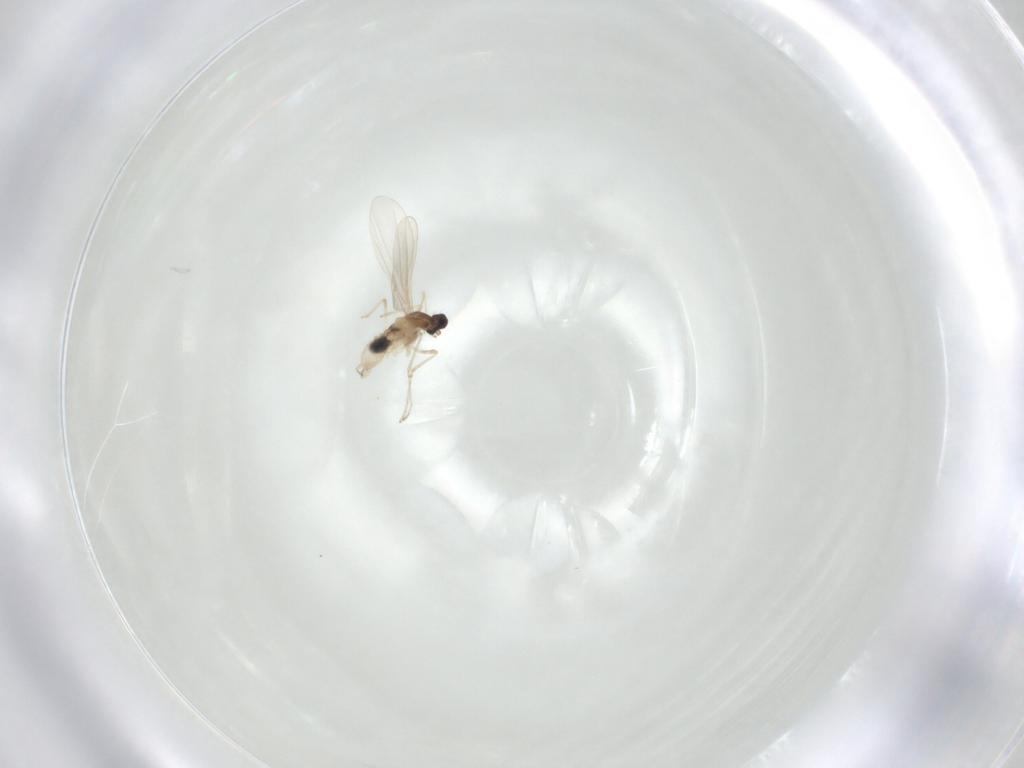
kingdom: Animalia
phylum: Arthropoda
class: Insecta
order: Diptera
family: Cecidomyiidae
